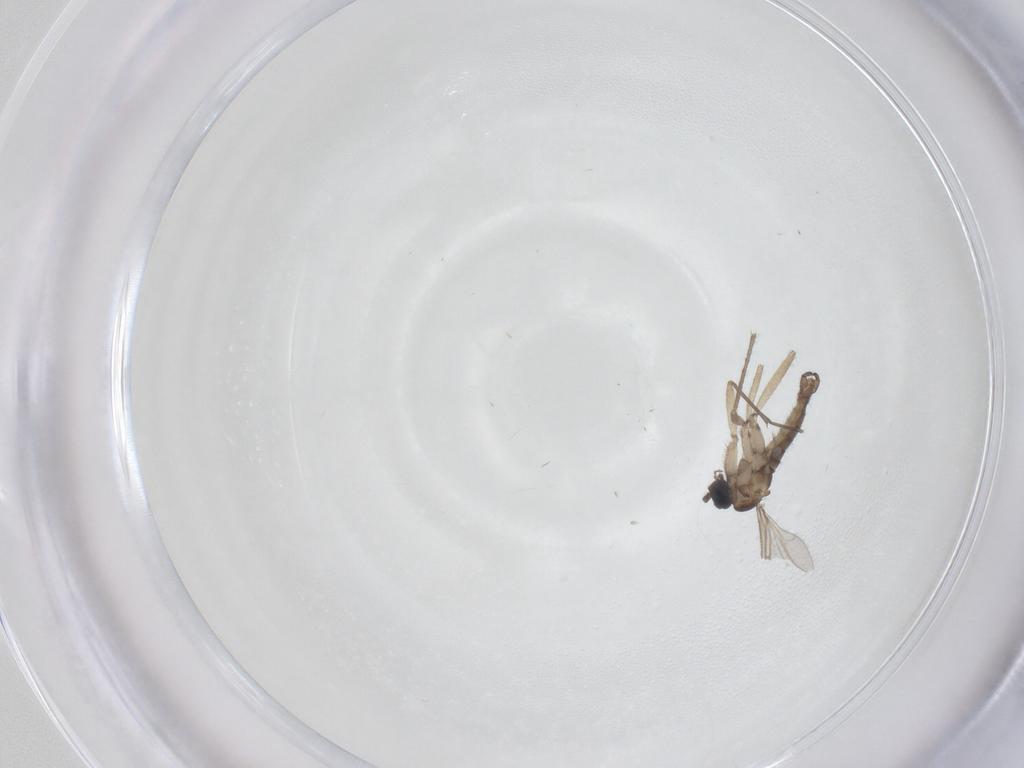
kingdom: Animalia
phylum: Arthropoda
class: Insecta
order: Diptera
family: Sciaridae
